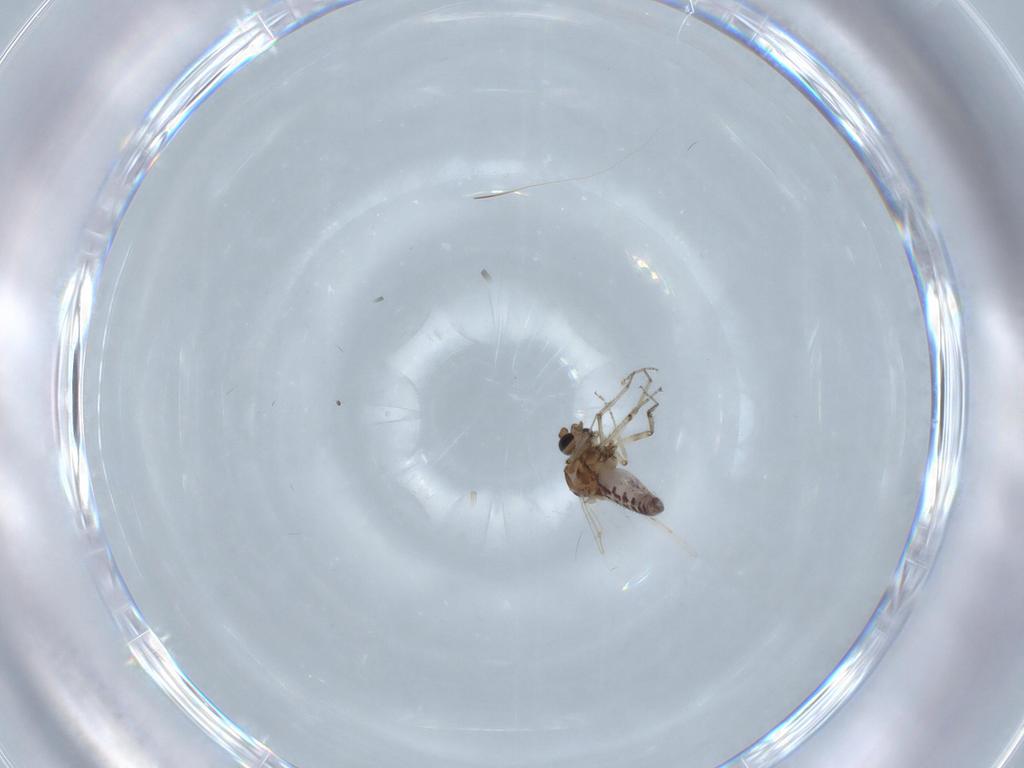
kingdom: Animalia
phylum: Arthropoda
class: Insecta
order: Diptera
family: Ceratopogonidae
